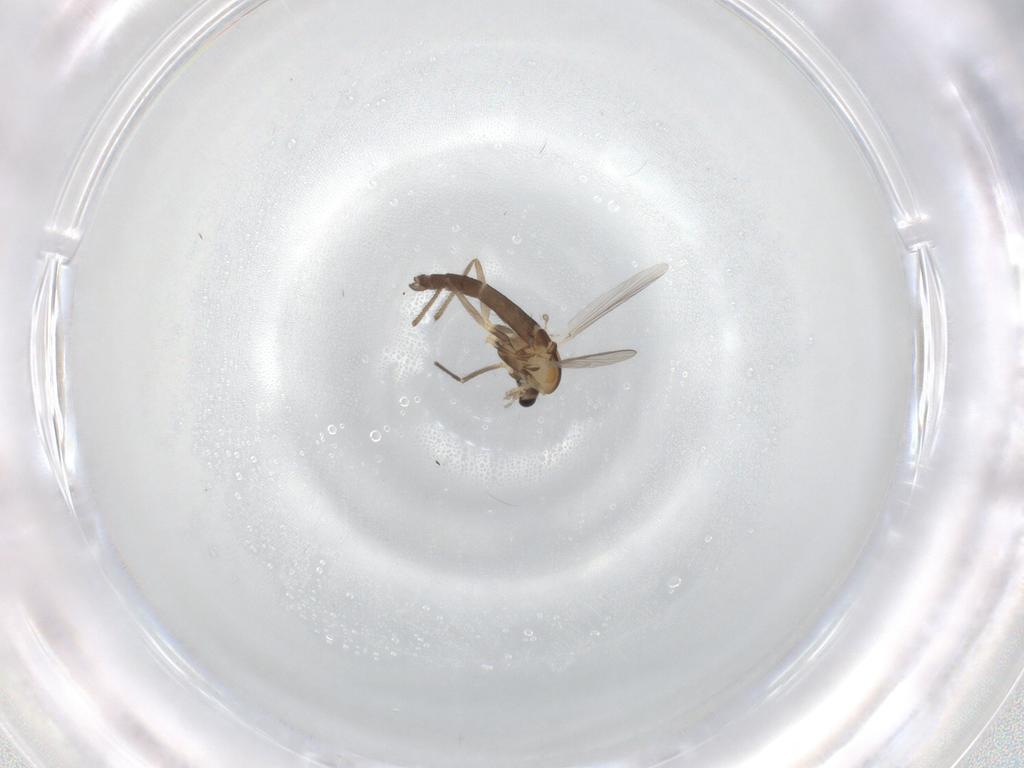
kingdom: Animalia
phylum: Arthropoda
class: Insecta
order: Diptera
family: Chironomidae
